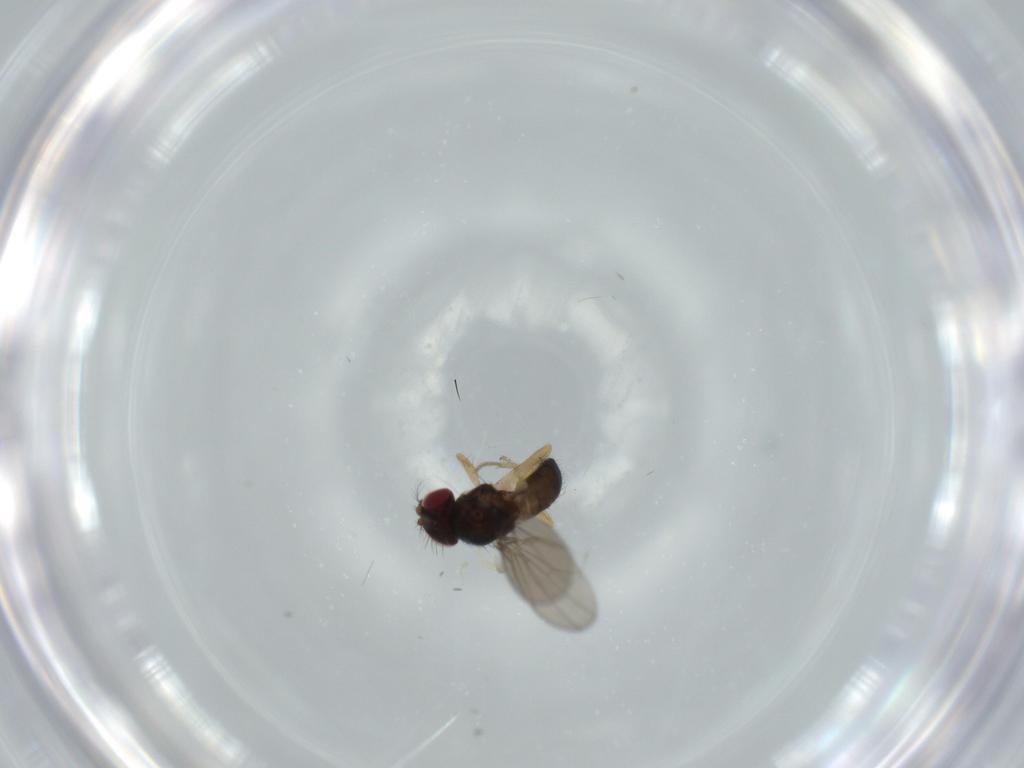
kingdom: Animalia
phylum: Arthropoda
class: Insecta
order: Diptera
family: Drosophilidae
